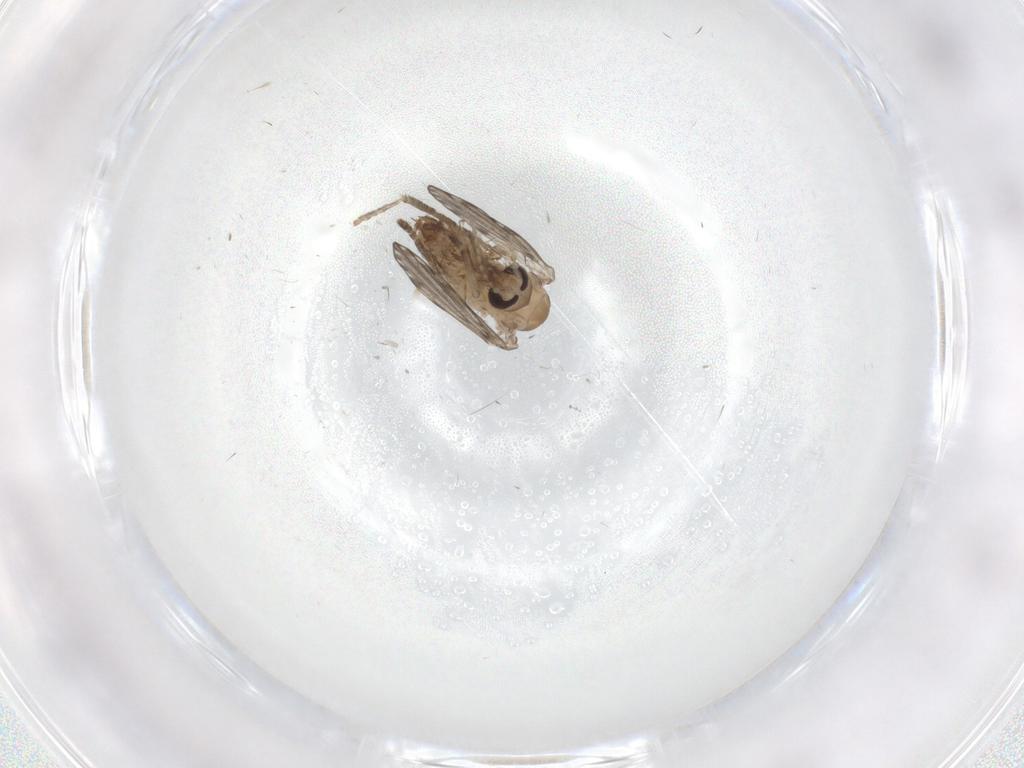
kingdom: Animalia
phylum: Arthropoda
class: Insecta
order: Diptera
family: Psychodidae
